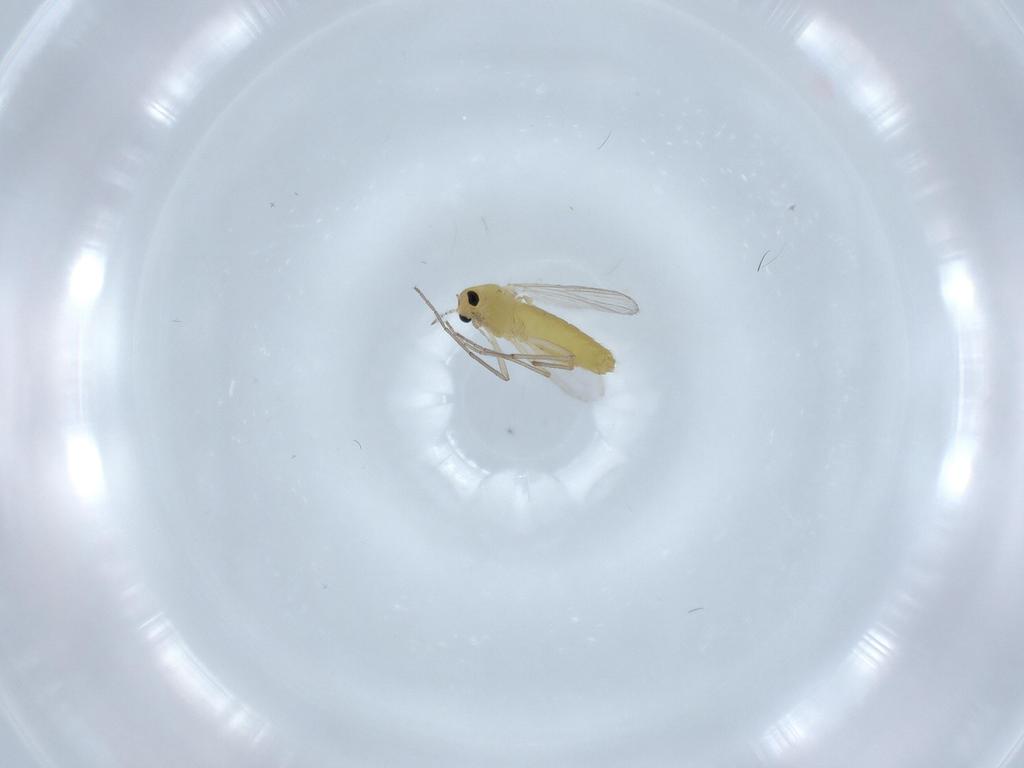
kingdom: Animalia
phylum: Arthropoda
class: Insecta
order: Diptera
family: Chironomidae
